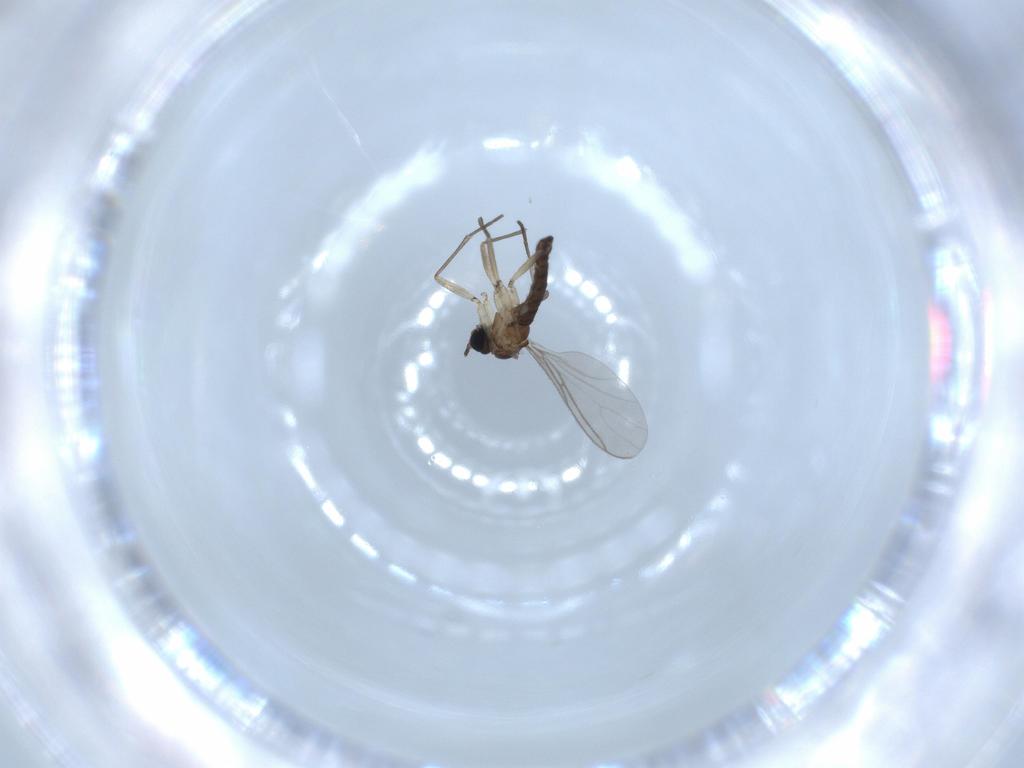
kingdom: Animalia
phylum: Arthropoda
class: Insecta
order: Diptera
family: Sciaridae
